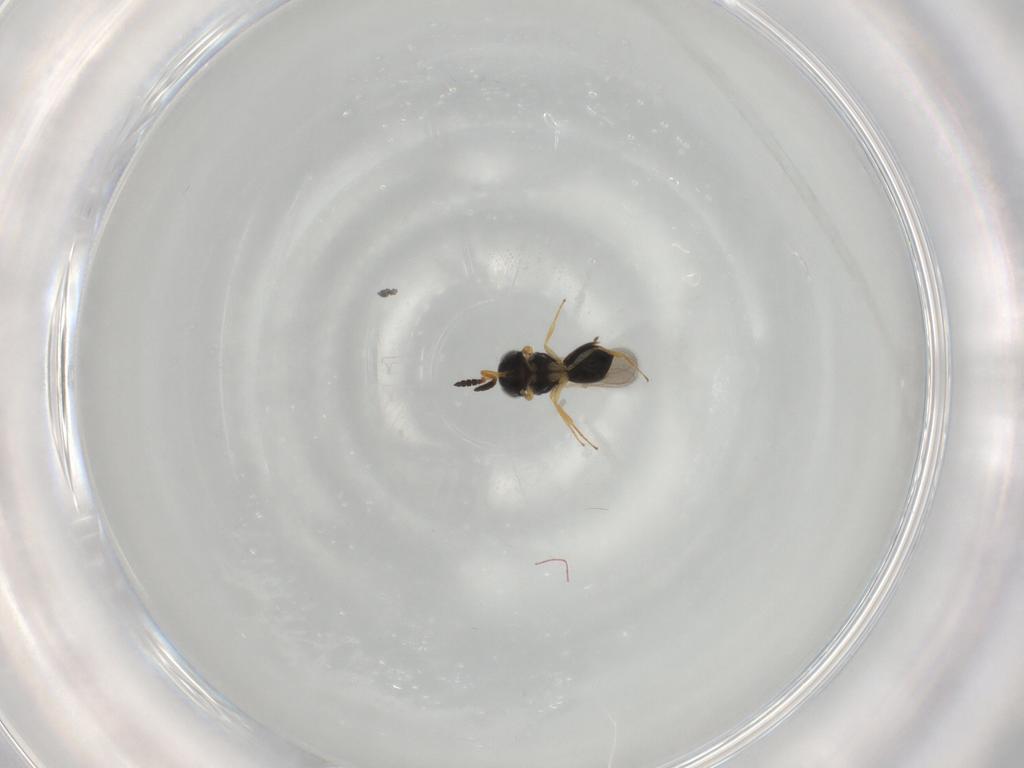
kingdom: Animalia
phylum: Arthropoda
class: Insecta
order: Hymenoptera
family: Scelionidae
